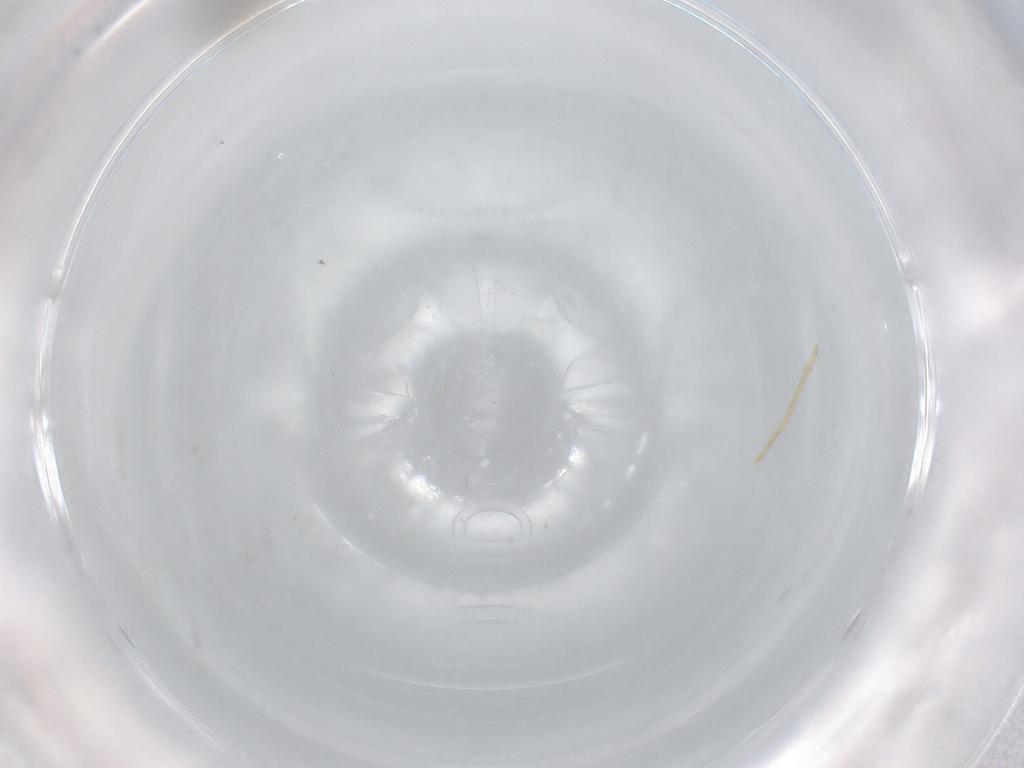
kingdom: Animalia
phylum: Arthropoda
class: Insecta
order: Hymenoptera
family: Mymaridae
